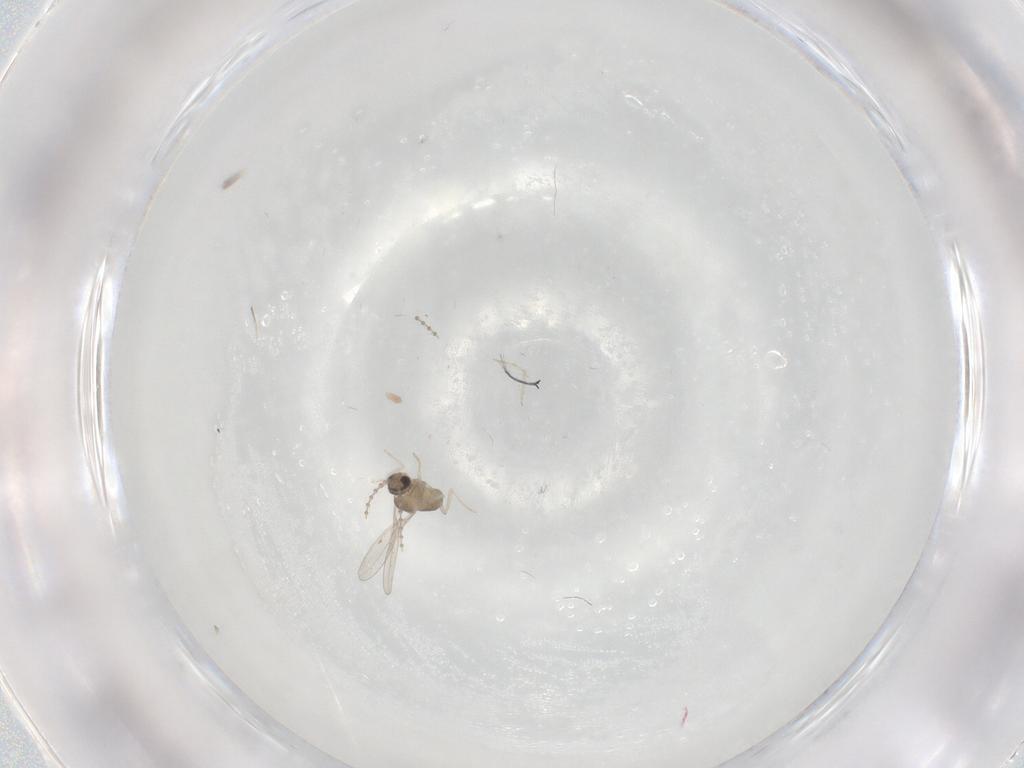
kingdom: Animalia
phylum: Arthropoda
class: Insecta
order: Diptera
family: Cecidomyiidae
